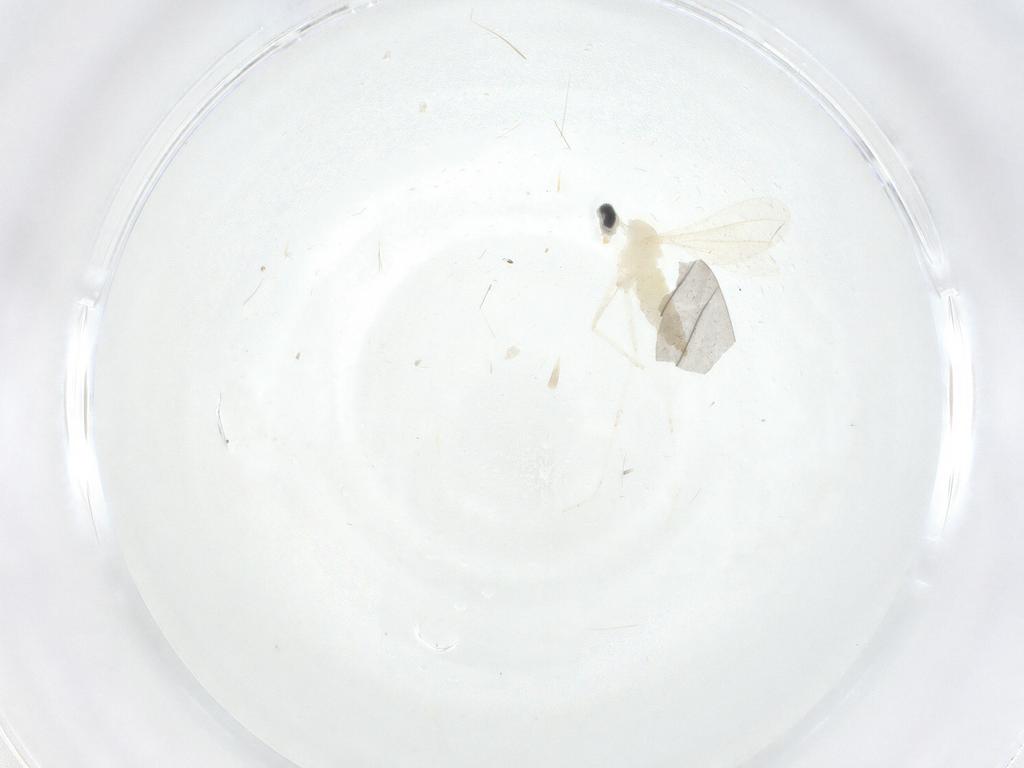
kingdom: Animalia
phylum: Arthropoda
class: Insecta
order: Diptera
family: Cecidomyiidae
